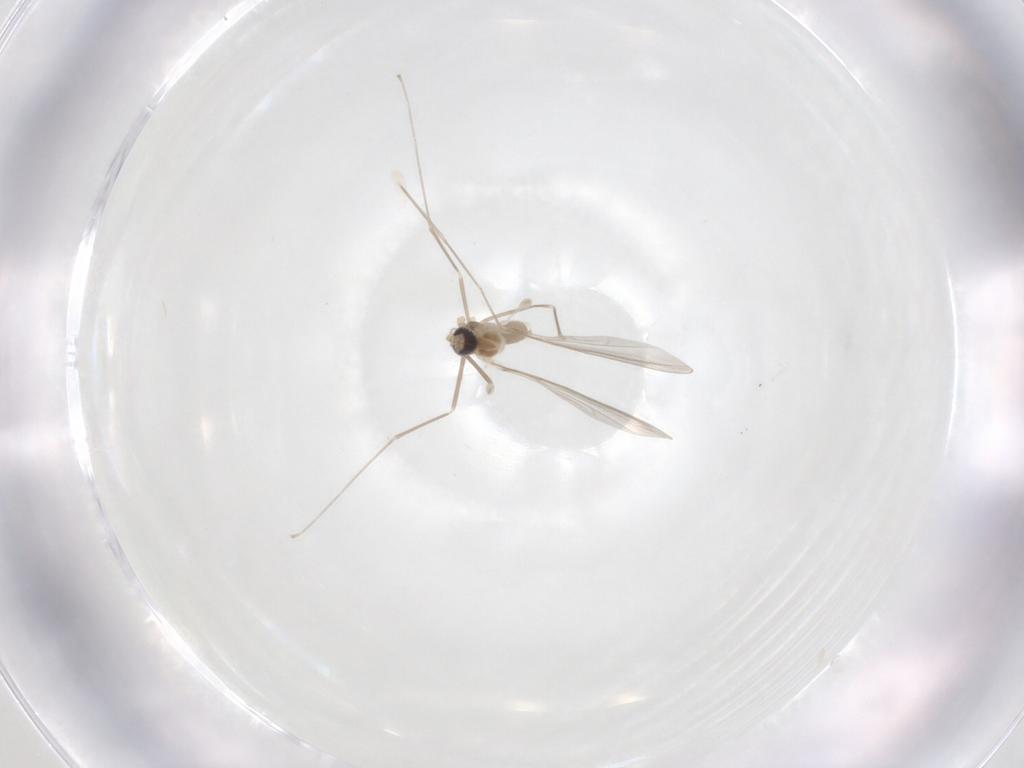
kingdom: Animalia
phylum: Arthropoda
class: Insecta
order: Diptera
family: Cecidomyiidae
